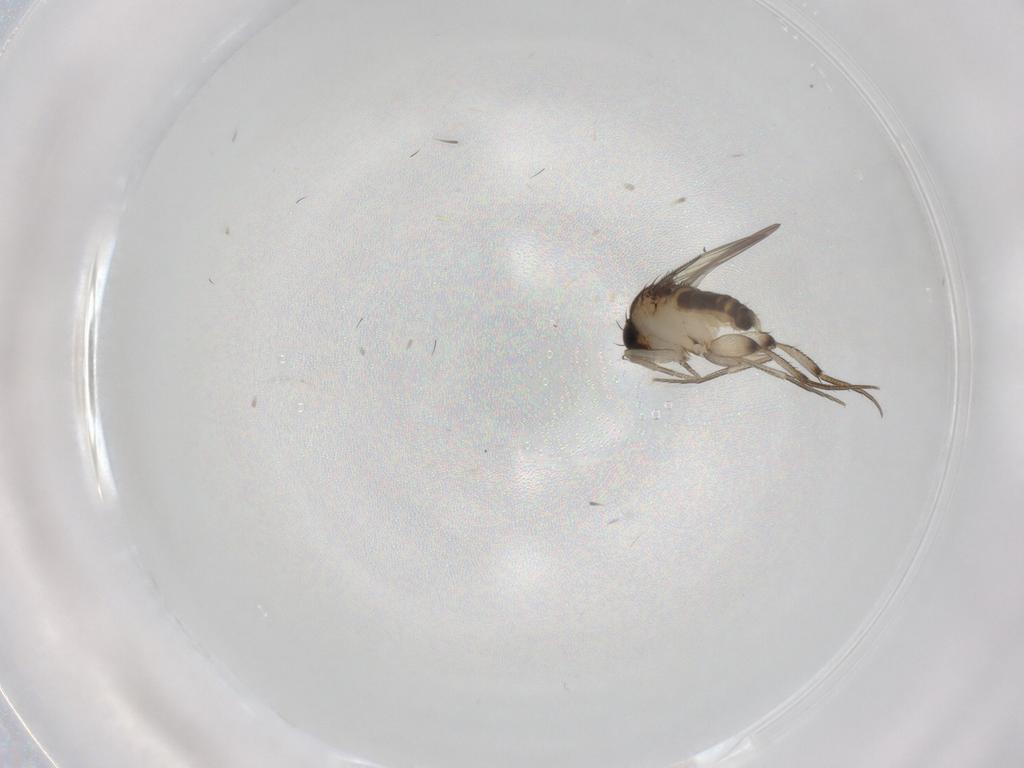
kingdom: Animalia
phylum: Arthropoda
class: Insecta
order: Diptera
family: Phoridae
